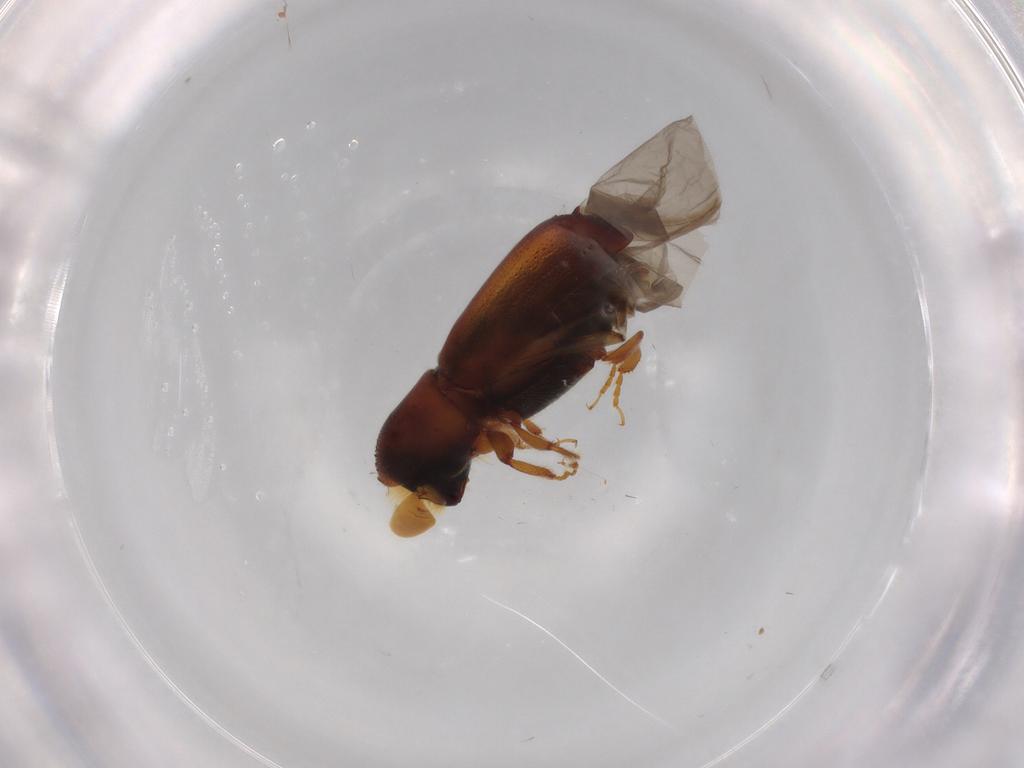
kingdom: Animalia
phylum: Arthropoda
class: Insecta
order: Coleoptera
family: Curculionidae
